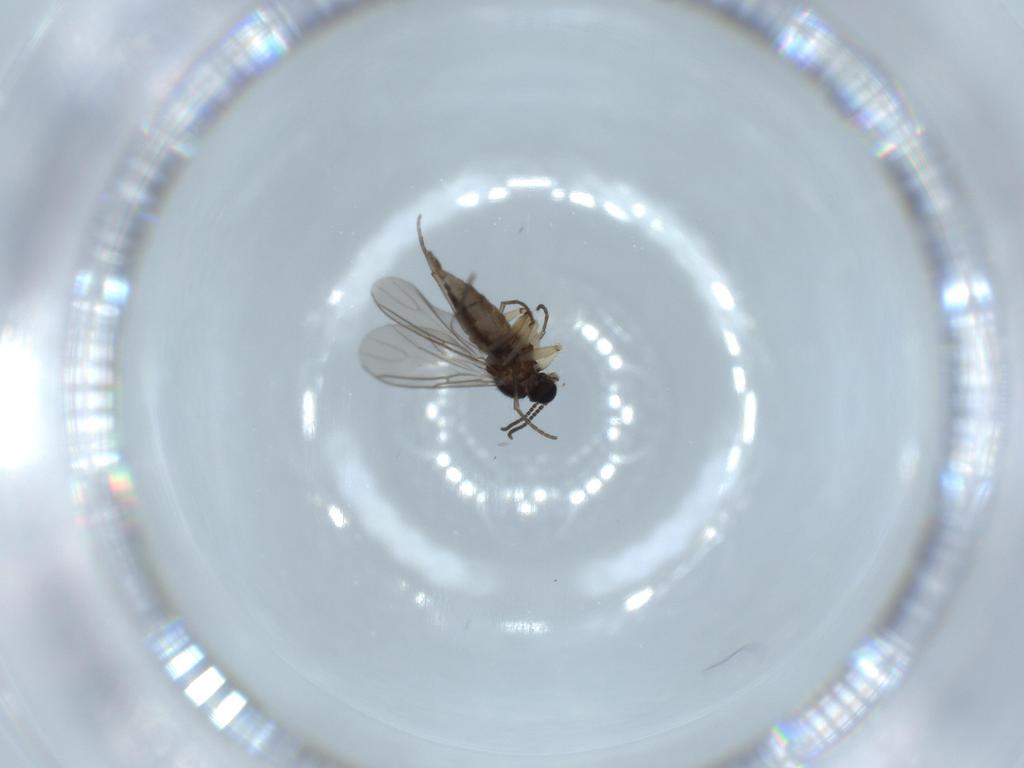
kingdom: Animalia
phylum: Arthropoda
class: Insecta
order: Diptera
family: Sciaridae
